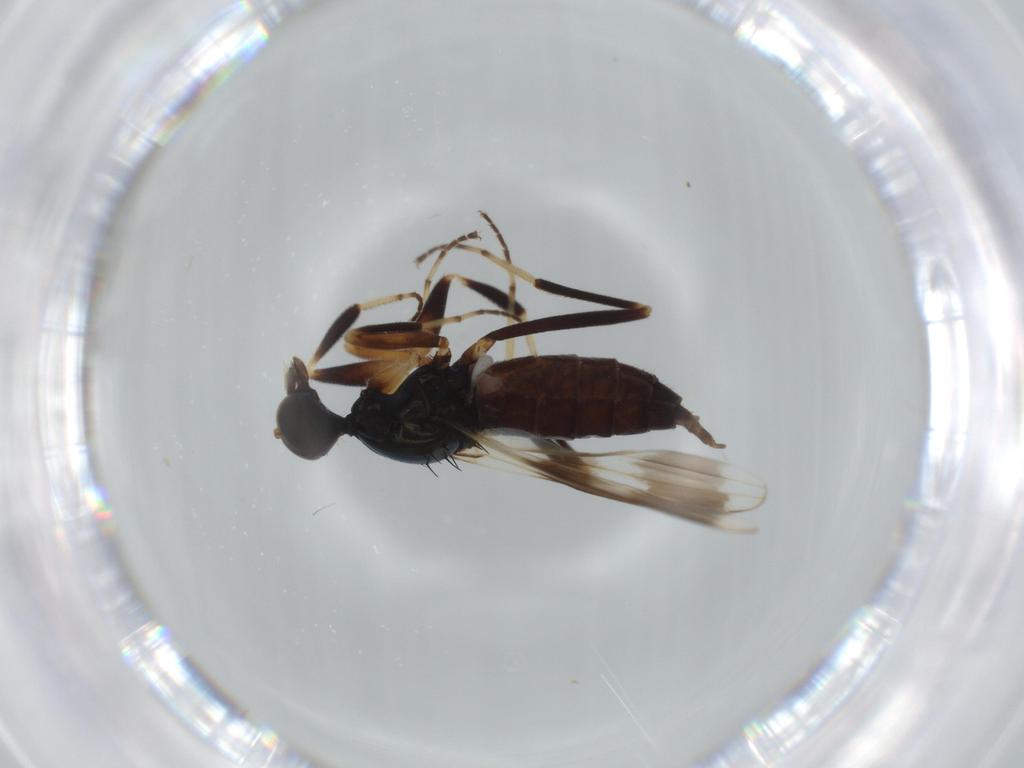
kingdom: Animalia
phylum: Arthropoda
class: Insecta
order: Diptera
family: Hybotidae
